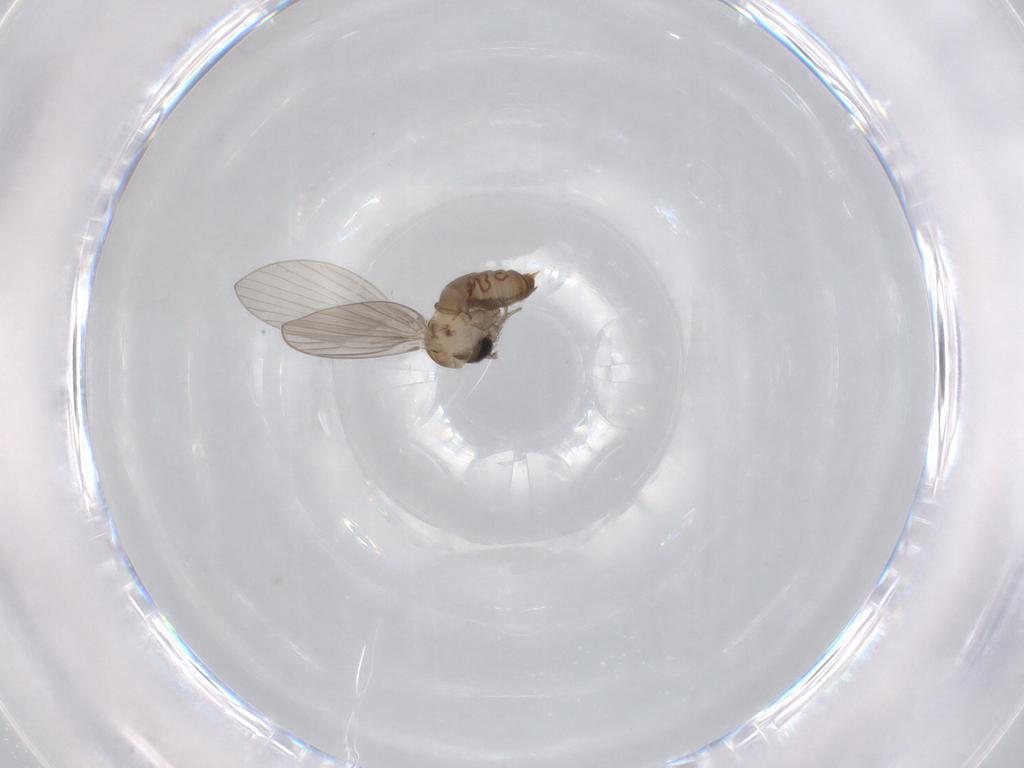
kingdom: Animalia
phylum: Arthropoda
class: Insecta
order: Diptera
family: Psychodidae
